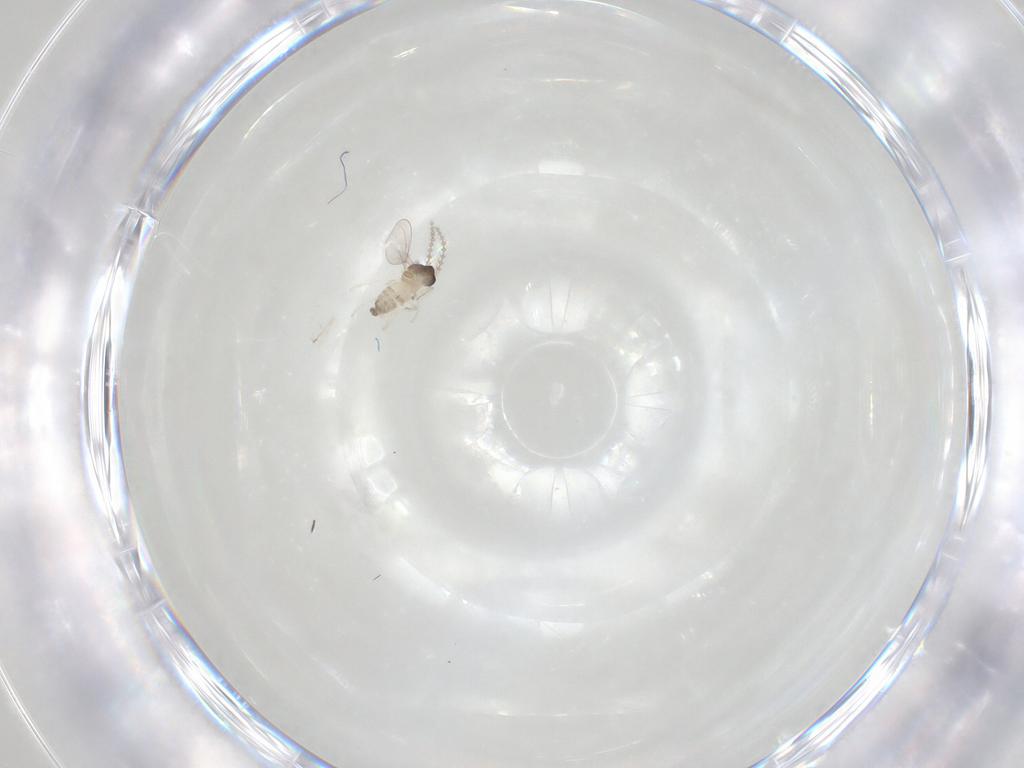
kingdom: Animalia
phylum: Arthropoda
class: Insecta
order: Diptera
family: Cecidomyiidae
